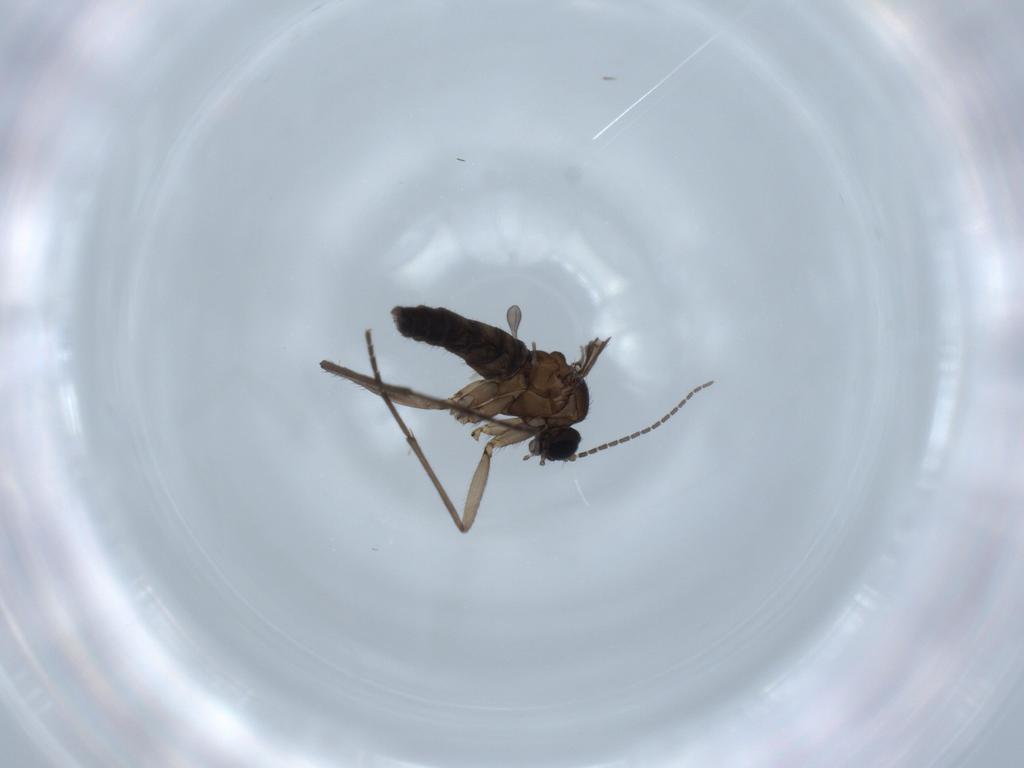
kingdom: Animalia
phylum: Arthropoda
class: Insecta
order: Diptera
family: Sciaridae
